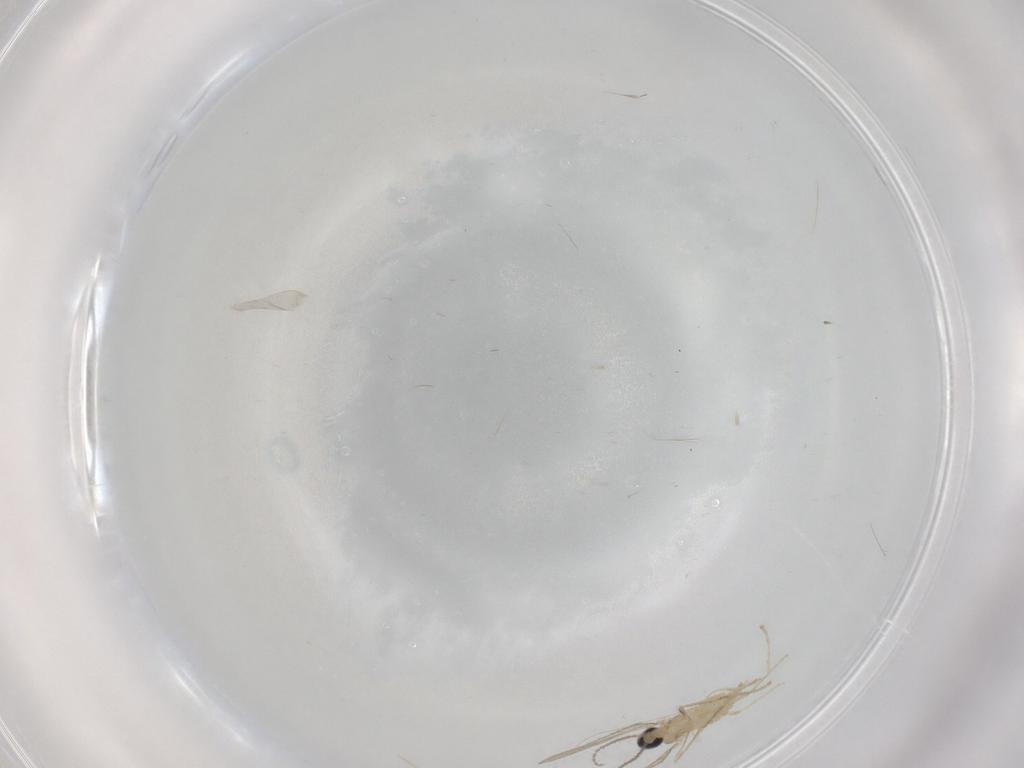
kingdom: Animalia
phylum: Arthropoda
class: Insecta
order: Diptera
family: Cecidomyiidae
